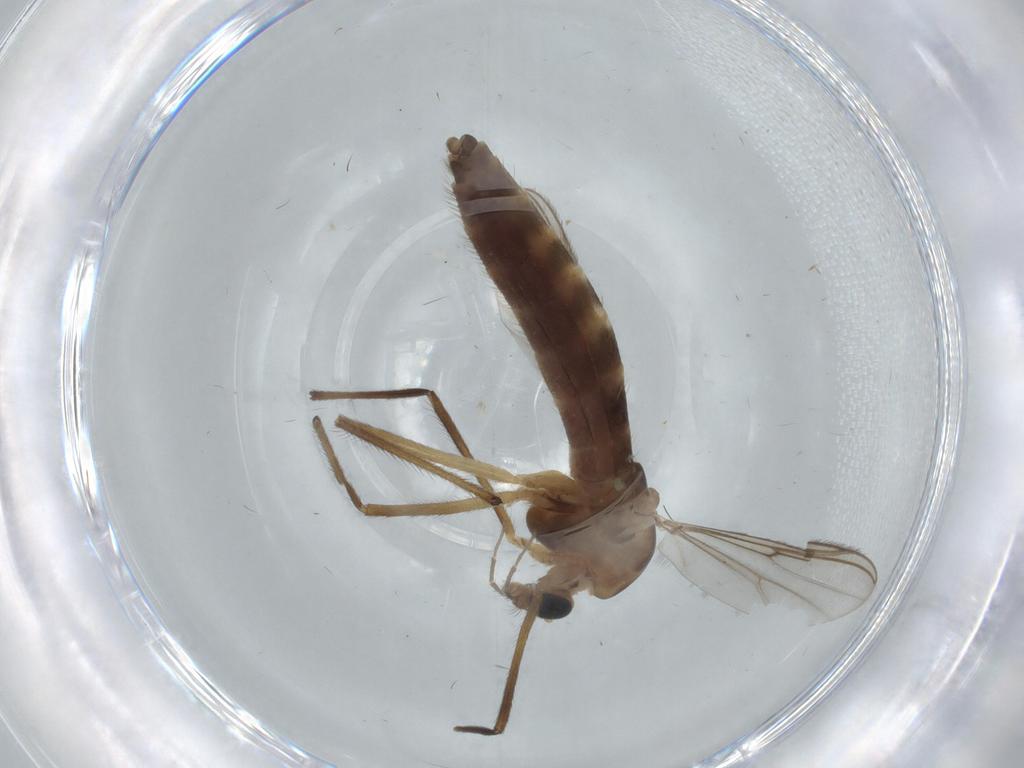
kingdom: Animalia
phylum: Arthropoda
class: Insecta
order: Diptera
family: Chironomidae
